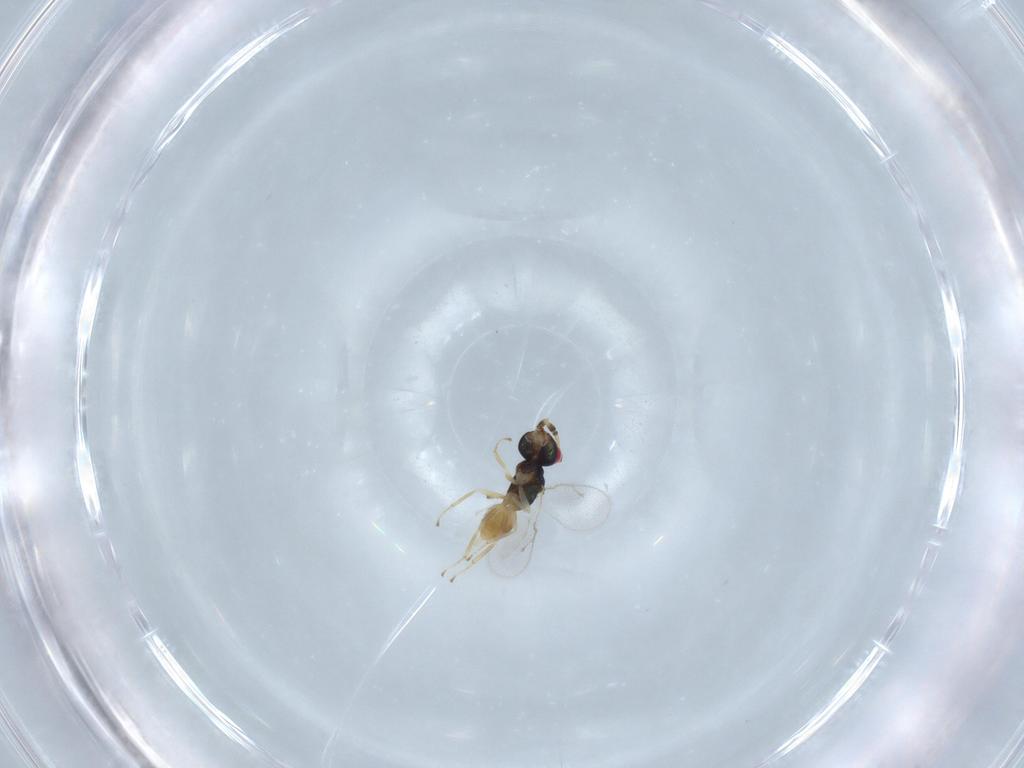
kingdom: Animalia
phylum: Arthropoda
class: Insecta
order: Hymenoptera
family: Pteromalidae
